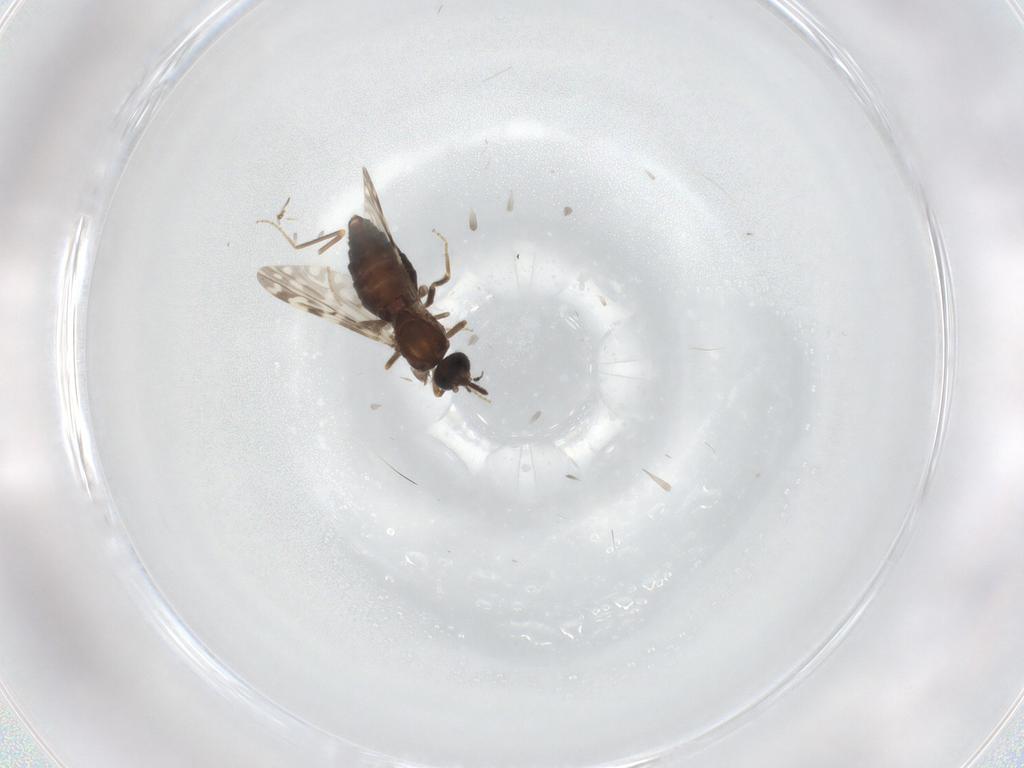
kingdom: Animalia
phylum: Arthropoda
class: Insecta
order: Diptera
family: Ceratopogonidae
